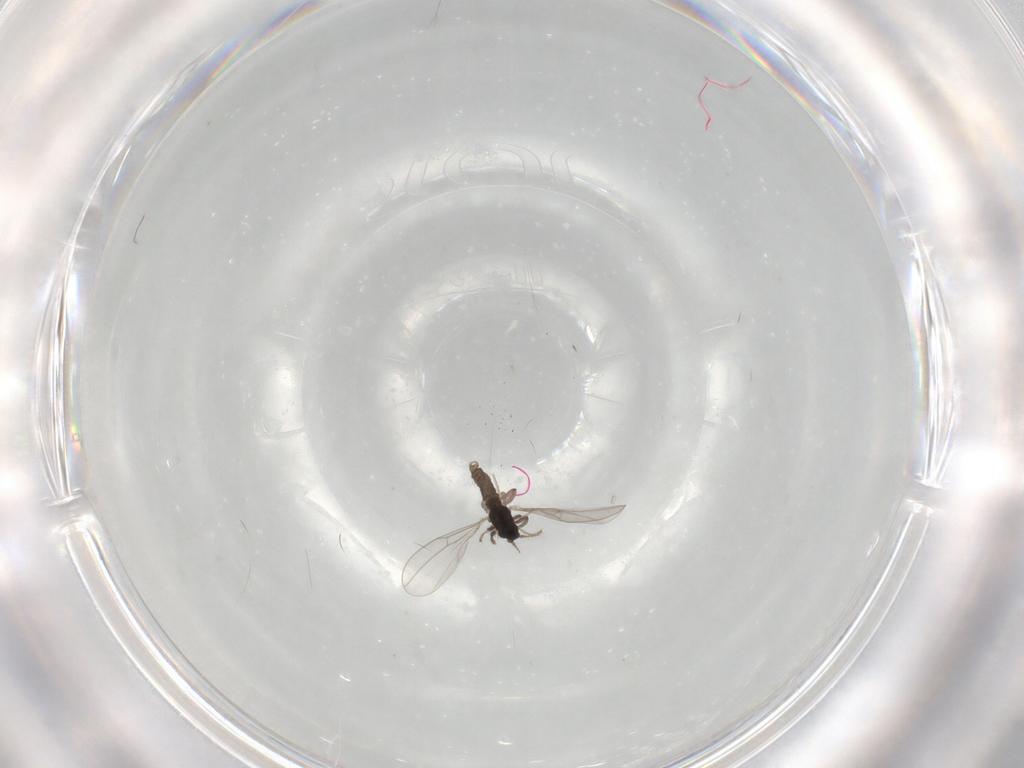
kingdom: Animalia
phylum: Arthropoda
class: Insecta
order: Diptera
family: Cecidomyiidae
